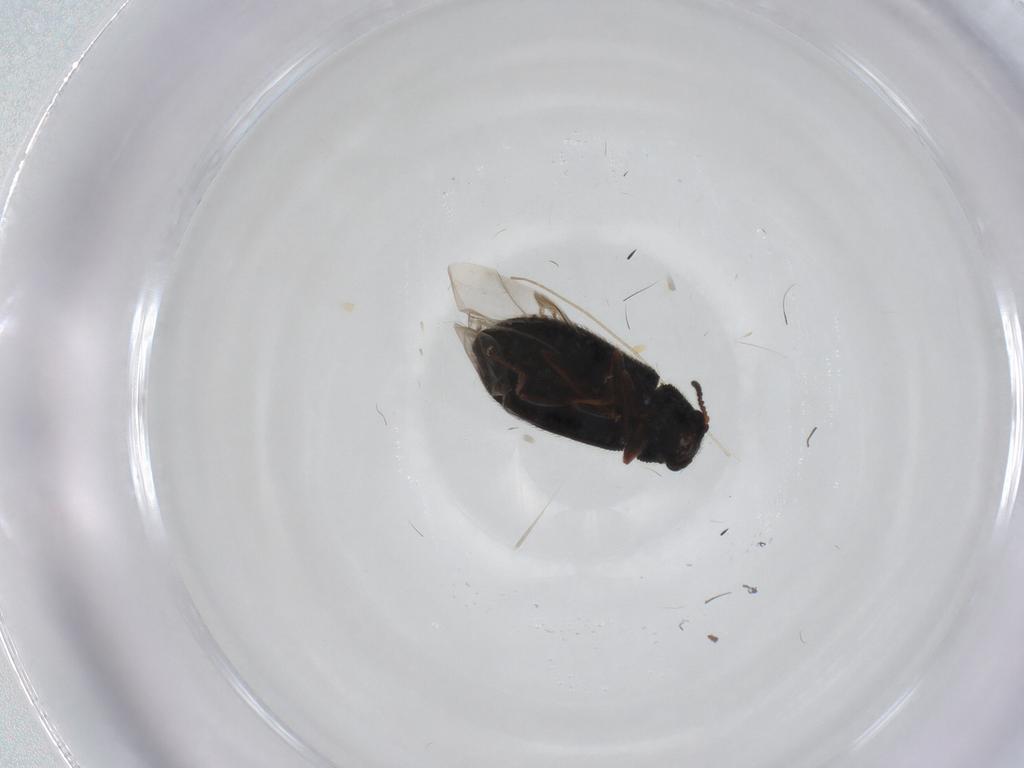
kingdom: Animalia
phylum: Arthropoda
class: Insecta
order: Coleoptera
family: Melyridae
